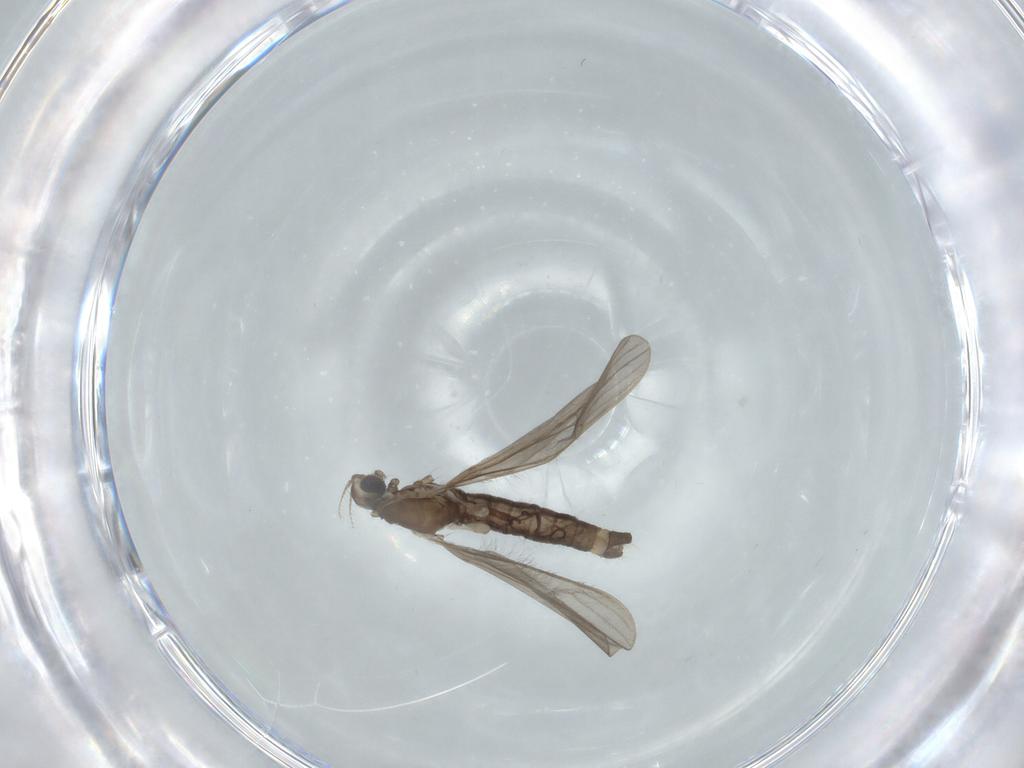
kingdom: Animalia
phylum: Arthropoda
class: Insecta
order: Diptera
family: Limoniidae
